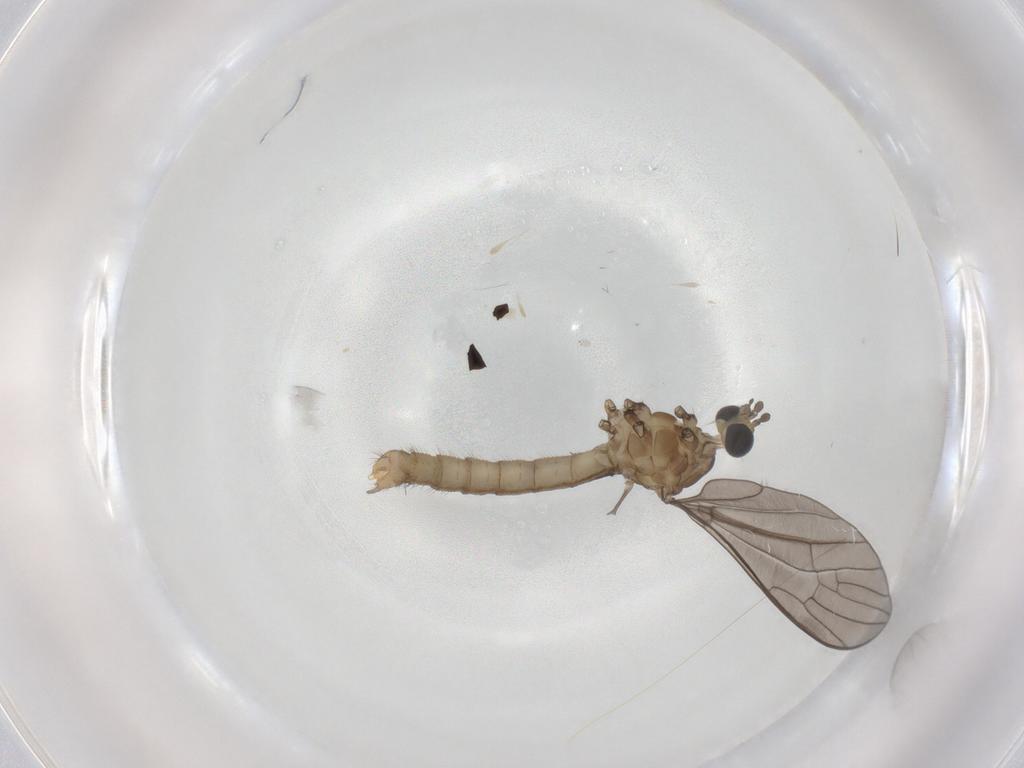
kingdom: Animalia
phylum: Arthropoda
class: Insecta
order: Diptera
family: Limoniidae
